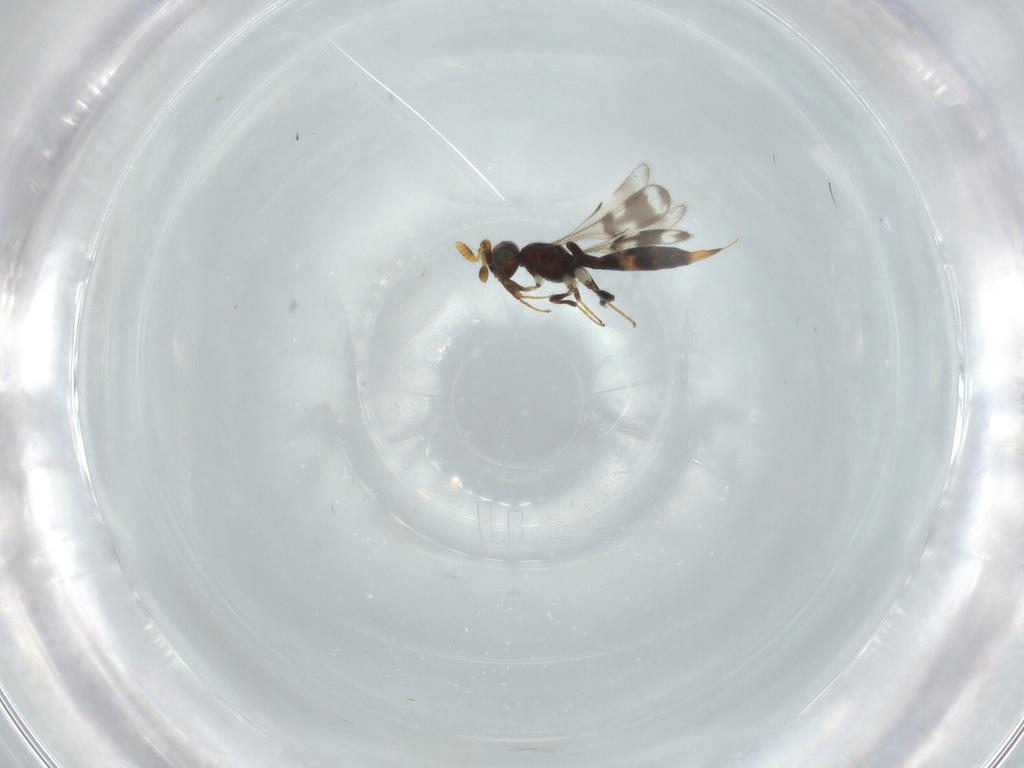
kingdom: Animalia
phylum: Arthropoda
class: Insecta
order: Hymenoptera
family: Scelionidae
